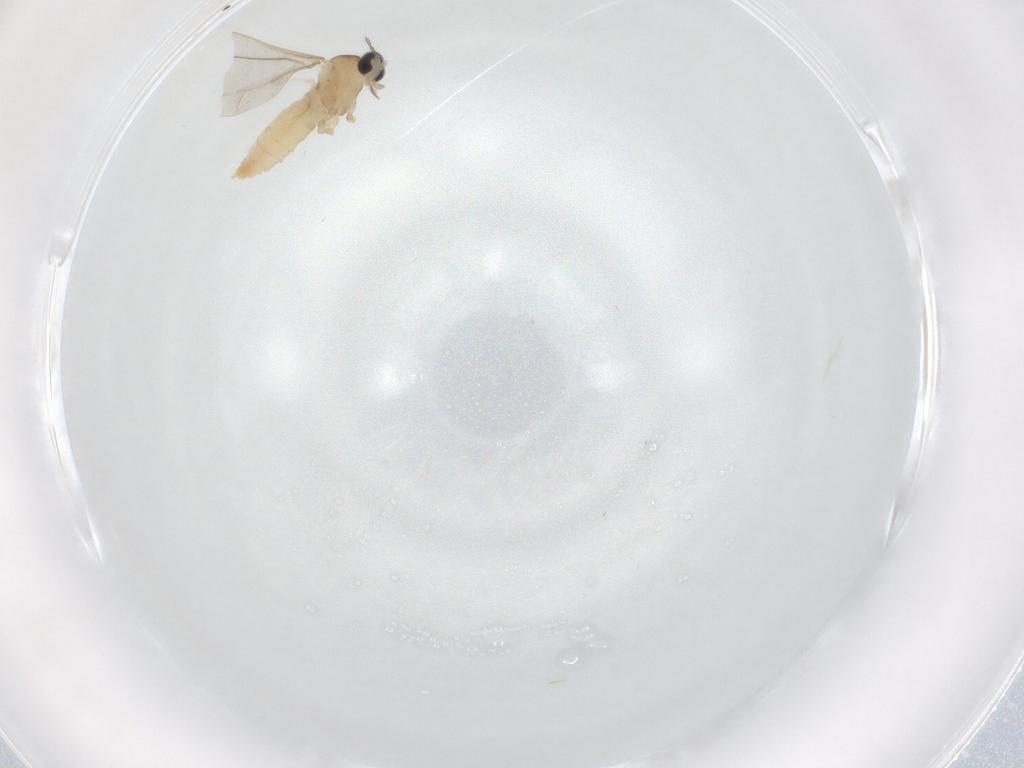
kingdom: Animalia
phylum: Arthropoda
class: Insecta
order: Diptera
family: Cecidomyiidae
